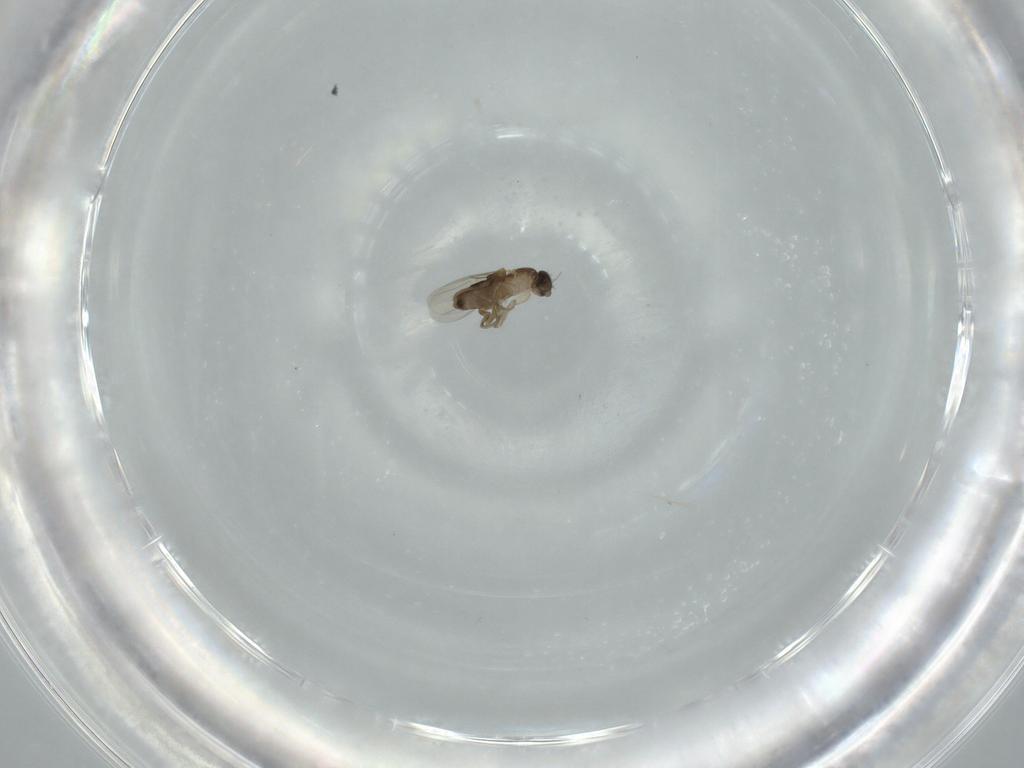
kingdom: Animalia
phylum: Arthropoda
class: Insecta
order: Diptera
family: Phoridae
